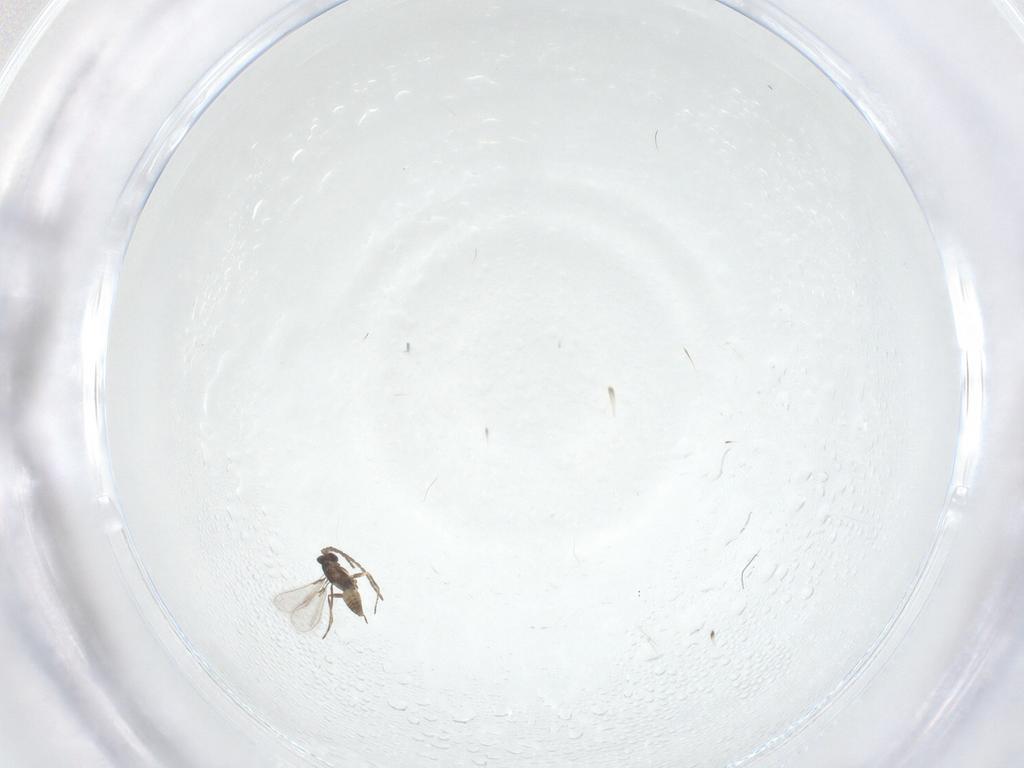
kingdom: Animalia
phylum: Arthropoda
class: Insecta
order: Hymenoptera
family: Mymaridae
